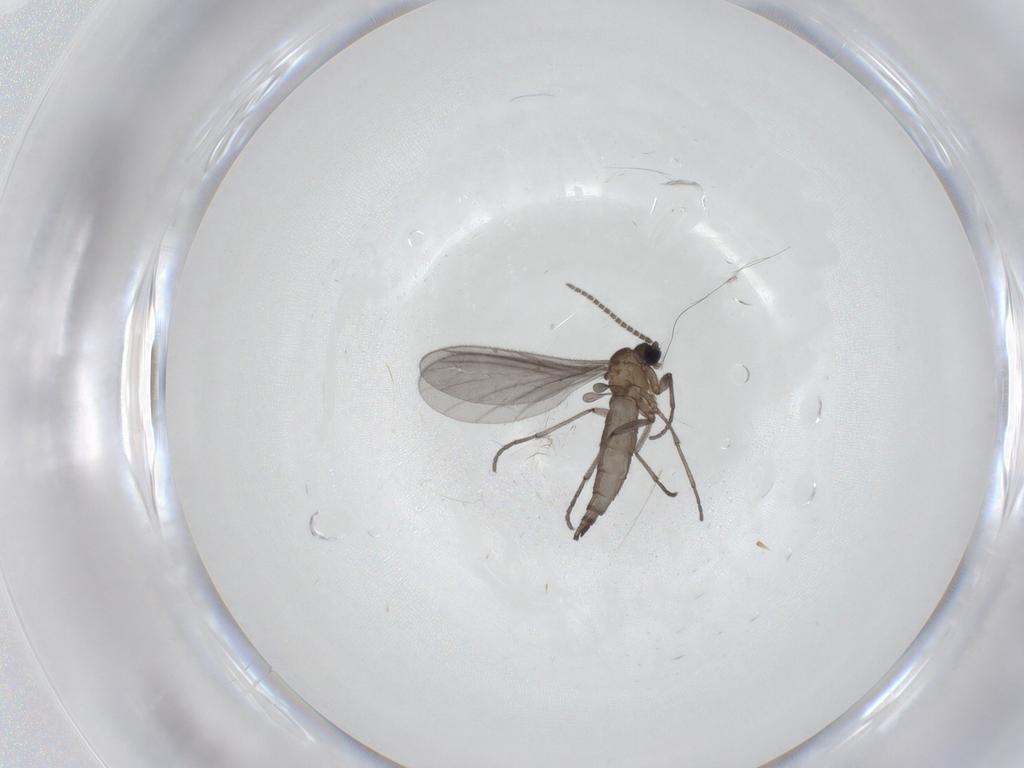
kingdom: Animalia
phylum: Arthropoda
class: Insecta
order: Diptera
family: Sciaridae
